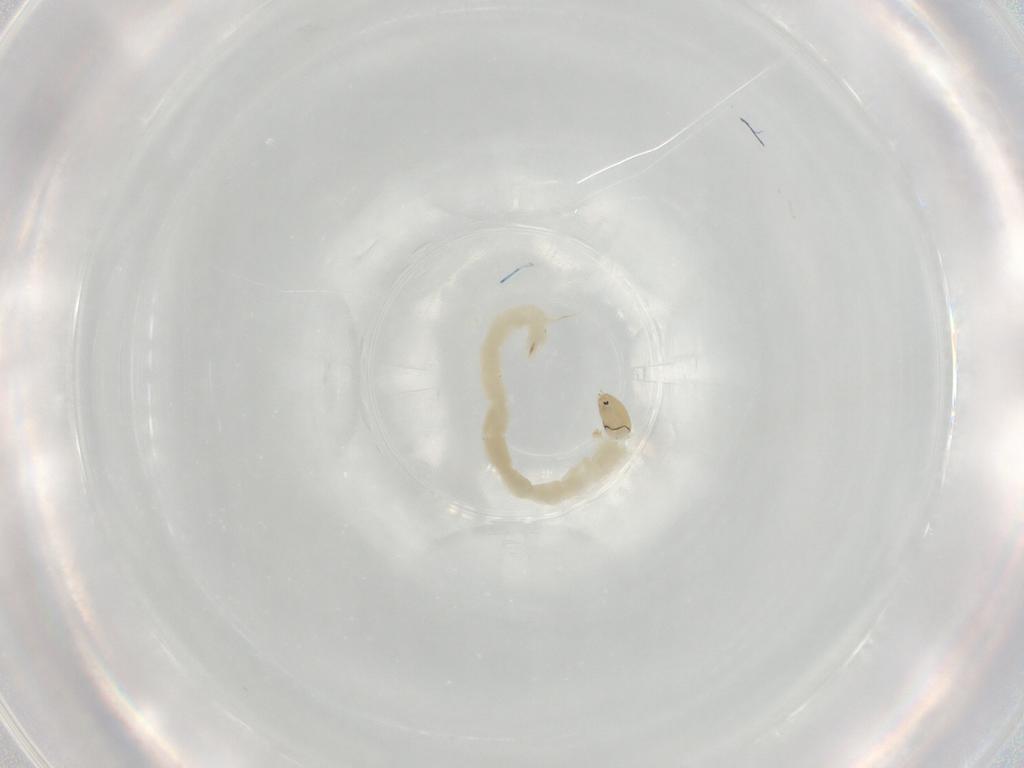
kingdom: Animalia
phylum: Arthropoda
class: Insecta
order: Diptera
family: Chironomidae
